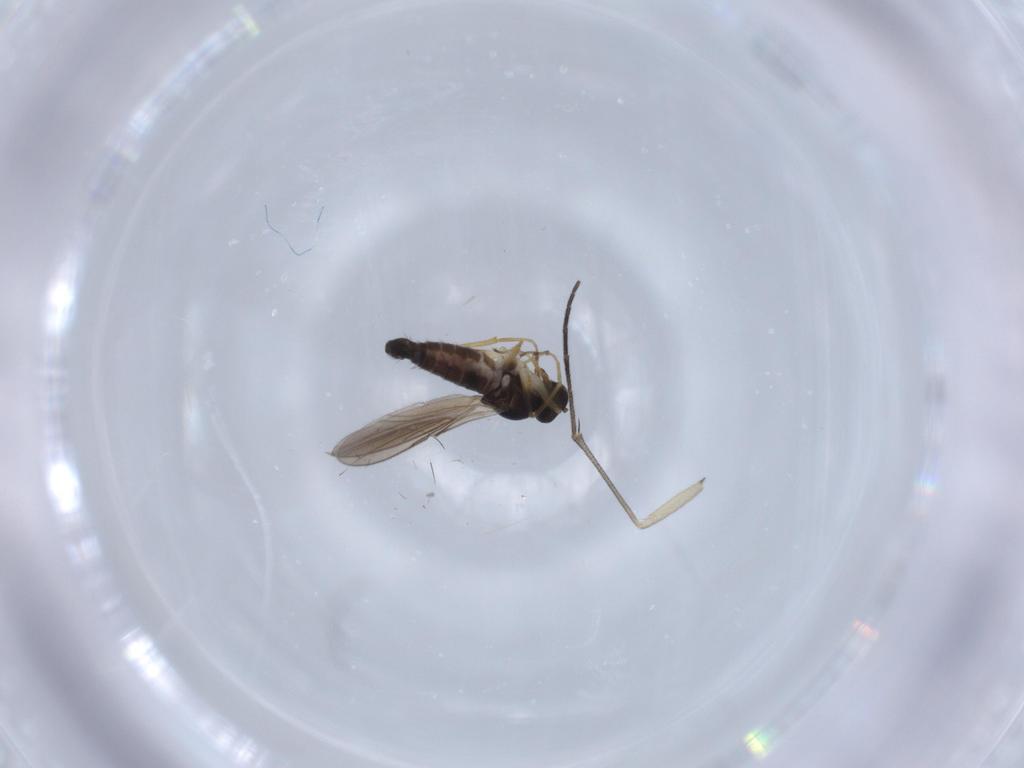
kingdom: Animalia
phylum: Arthropoda
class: Insecta
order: Diptera
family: Hybotidae
